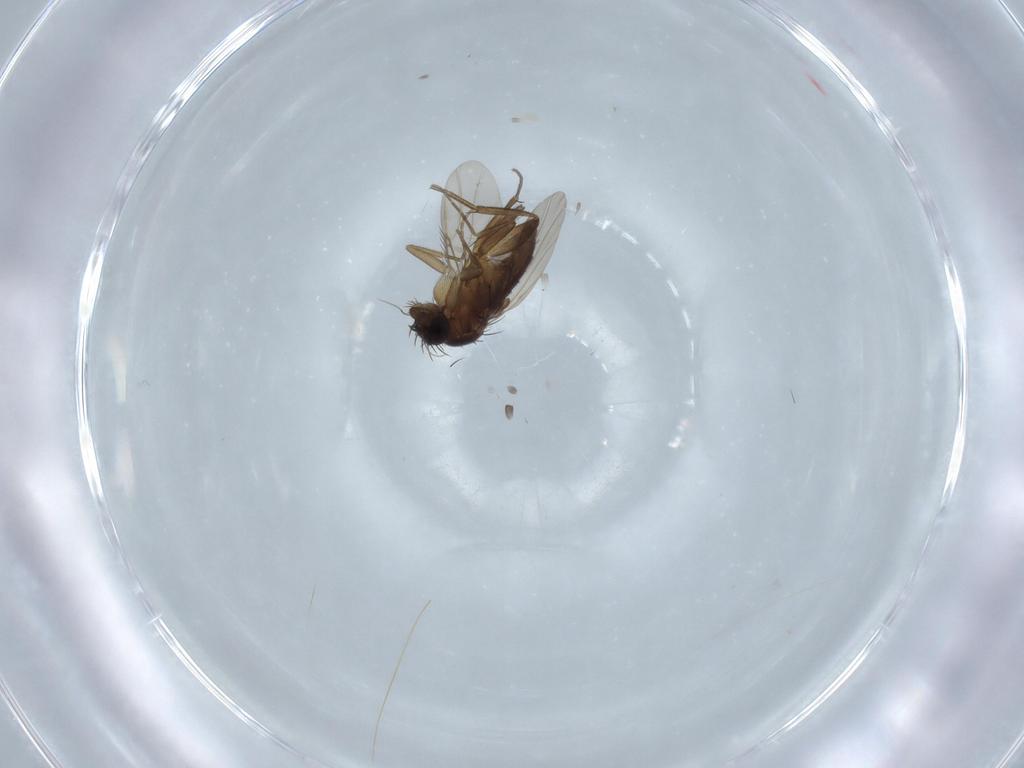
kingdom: Animalia
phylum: Arthropoda
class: Insecta
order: Diptera
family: Phoridae
